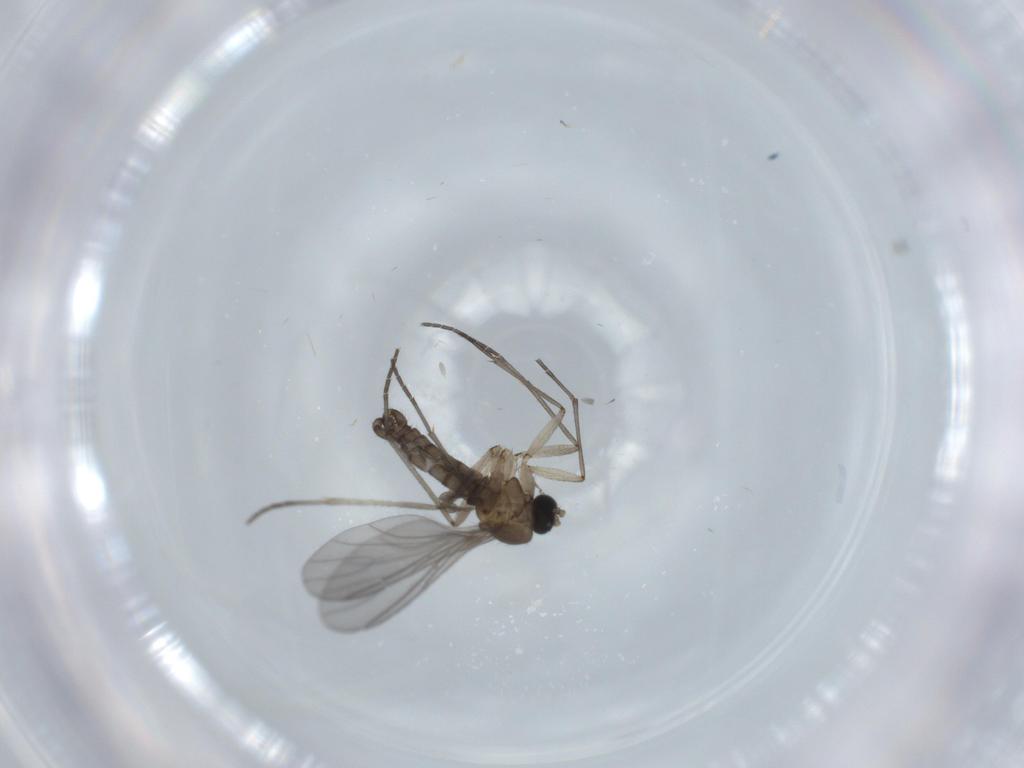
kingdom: Animalia
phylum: Arthropoda
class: Insecta
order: Diptera
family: Sciaridae
